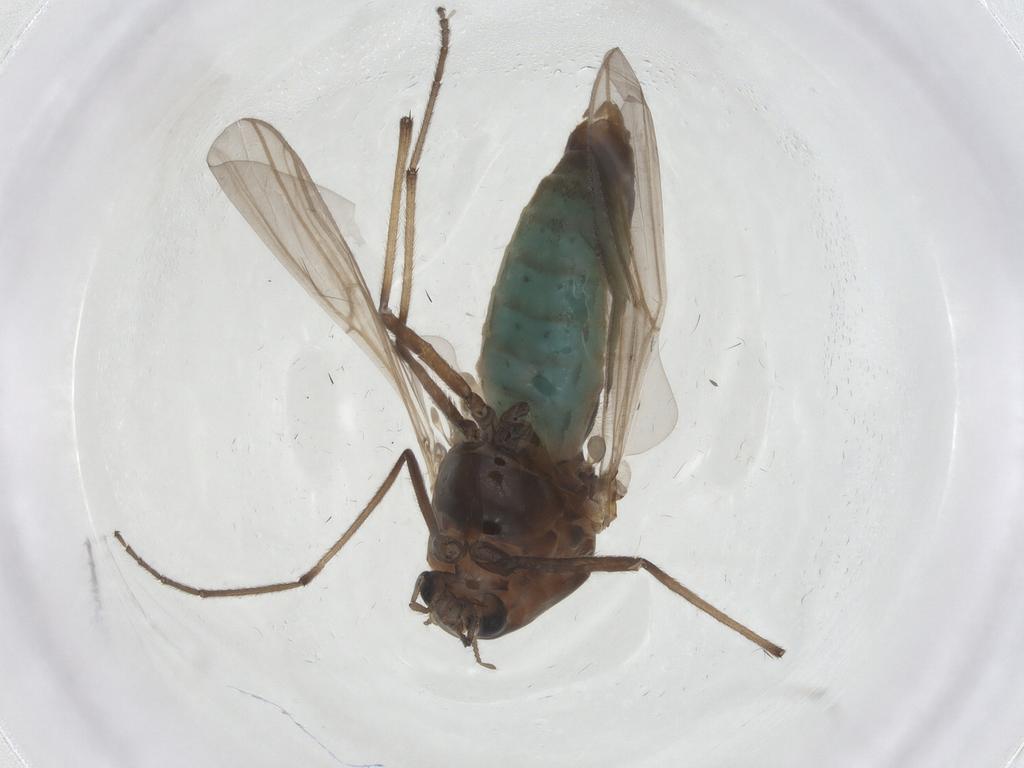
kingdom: Animalia
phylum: Arthropoda
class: Insecta
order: Diptera
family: Chironomidae
